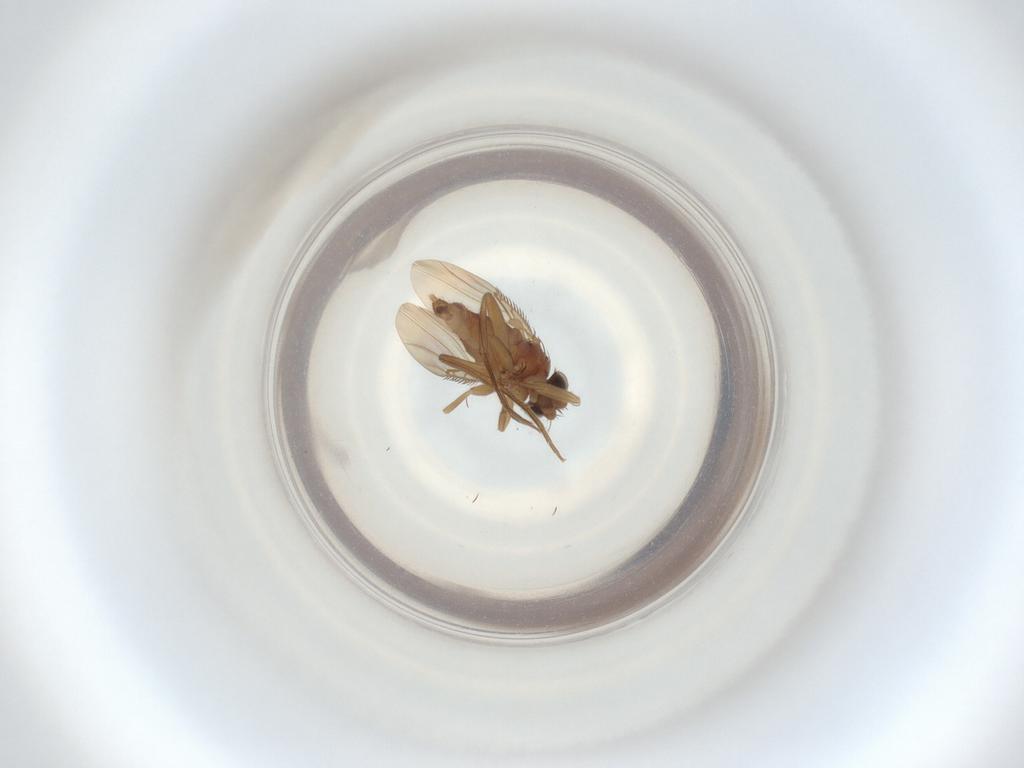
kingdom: Animalia
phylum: Arthropoda
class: Insecta
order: Diptera
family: Phoridae
